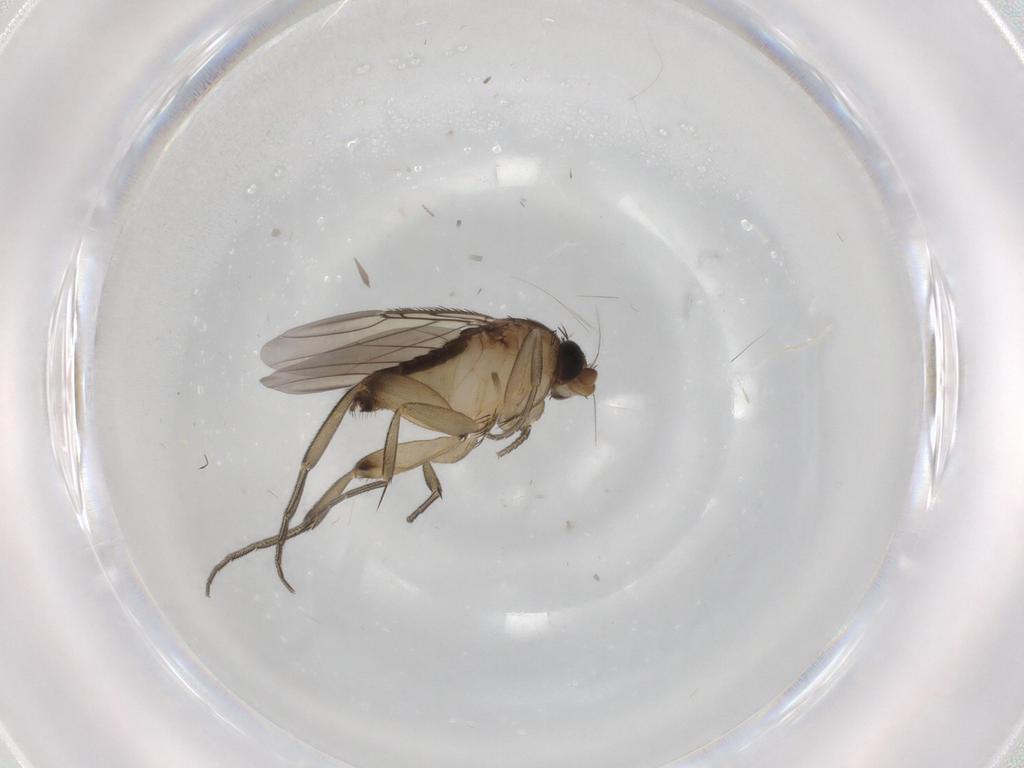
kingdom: Animalia
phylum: Arthropoda
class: Insecta
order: Diptera
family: Phoridae
